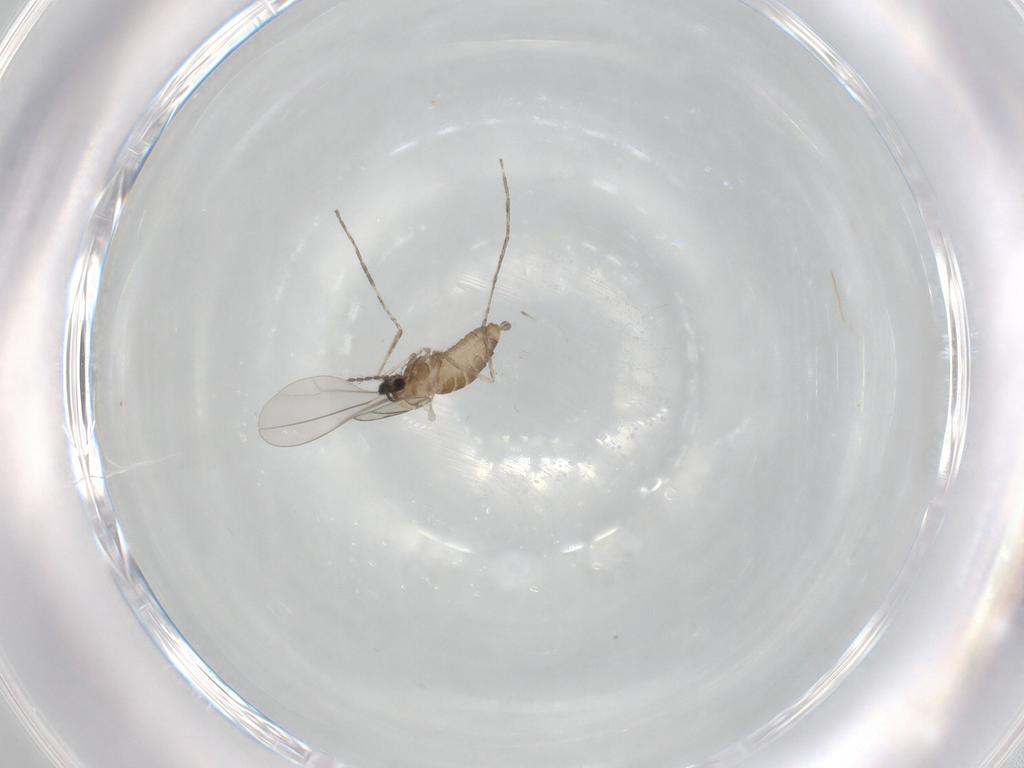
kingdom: Animalia
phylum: Arthropoda
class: Insecta
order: Diptera
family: Cecidomyiidae
